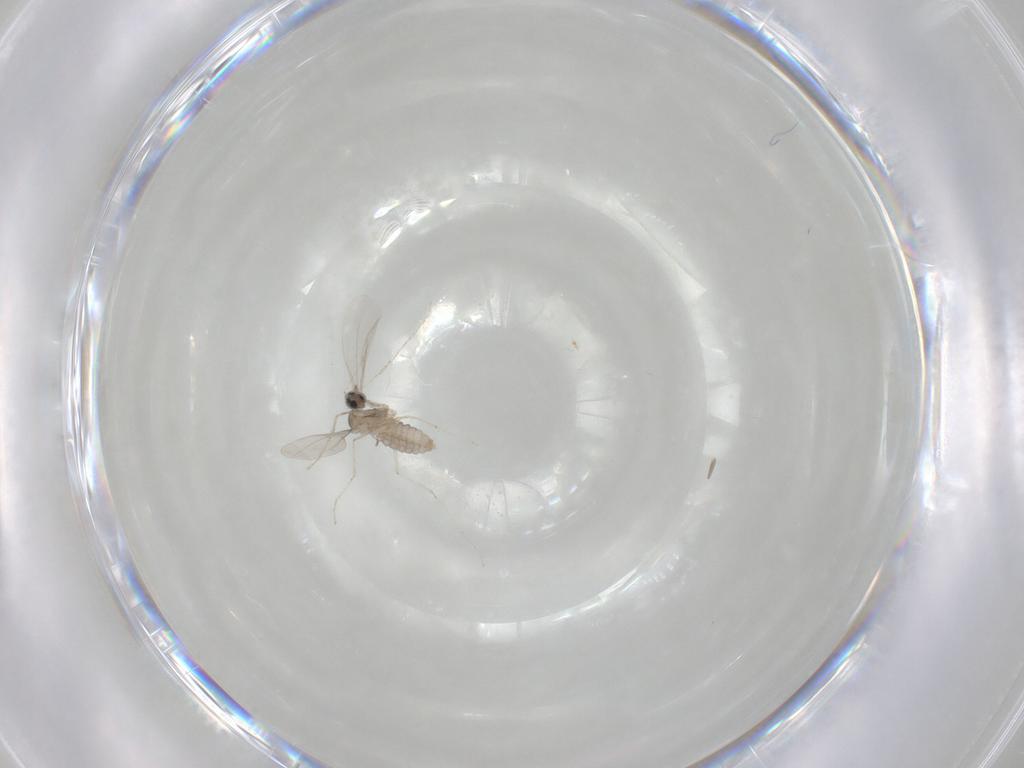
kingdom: Animalia
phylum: Arthropoda
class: Insecta
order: Diptera
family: Cecidomyiidae
